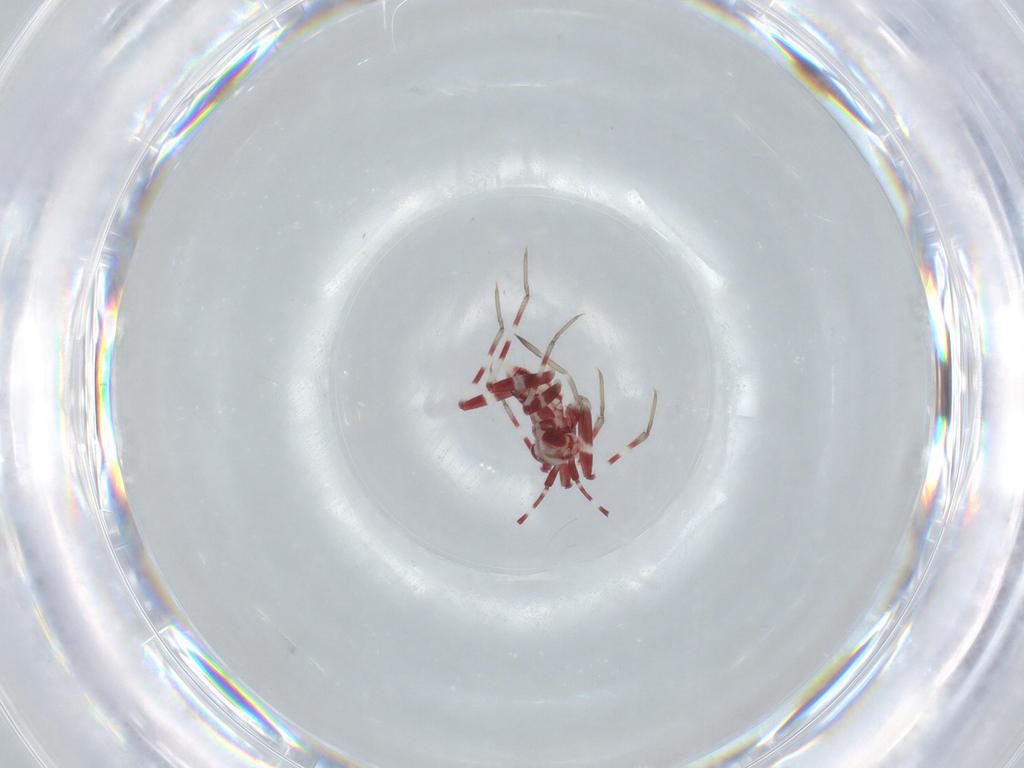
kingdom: Animalia
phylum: Arthropoda
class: Insecta
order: Hemiptera
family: Miridae
